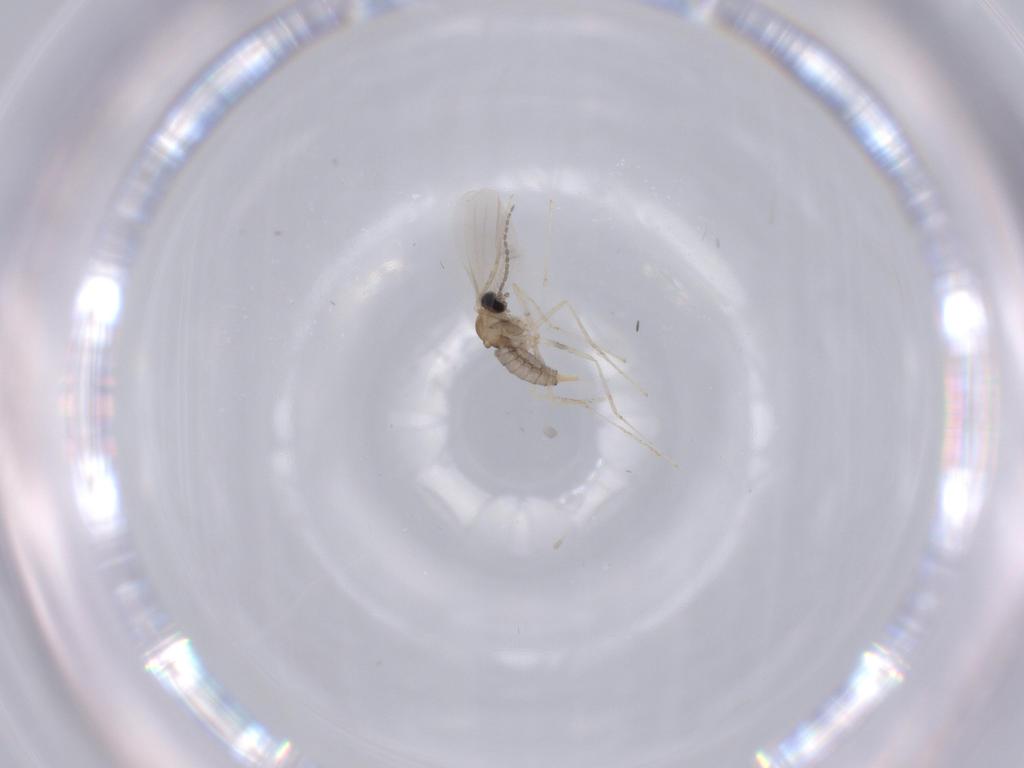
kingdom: Animalia
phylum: Arthropoda
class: Insecta
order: Diptera
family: Cecidomyiidae
